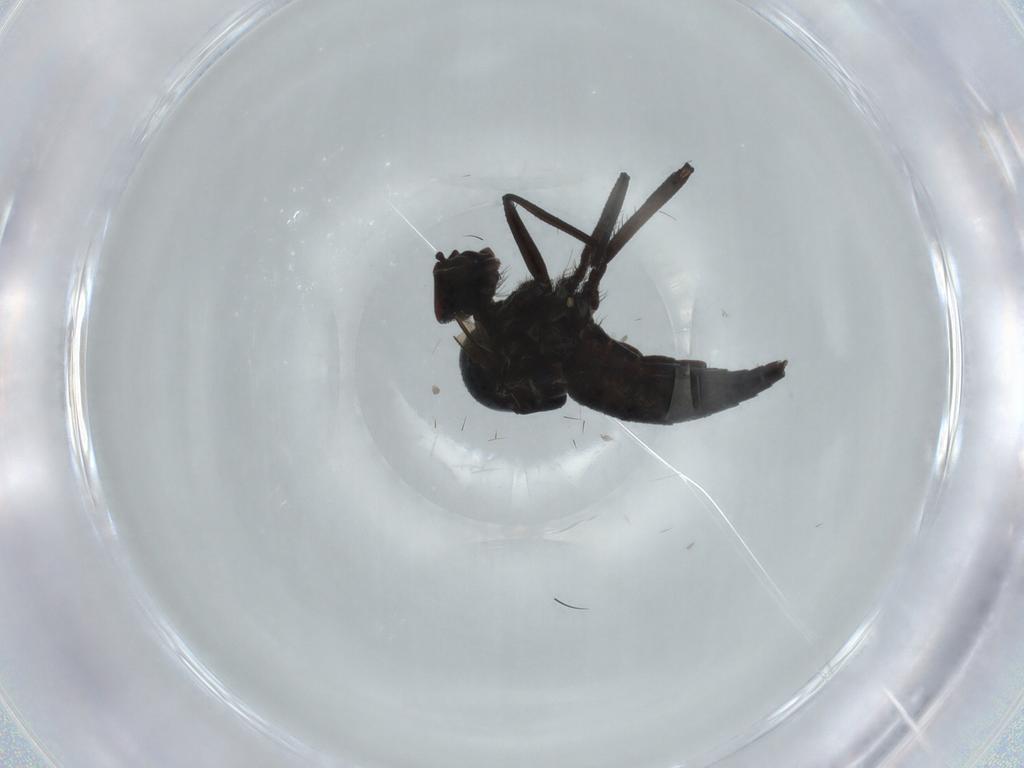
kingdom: Animalia
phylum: Arthropoda
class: Insecta
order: Diptera
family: Hybotidae
